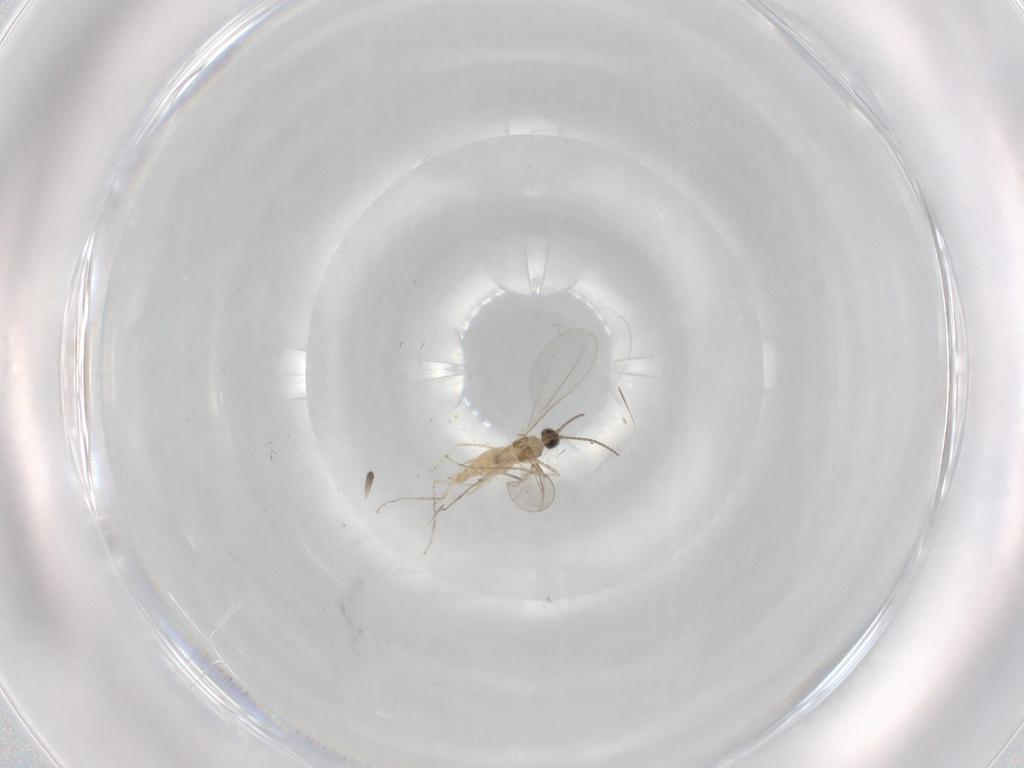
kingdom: Animalia
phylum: Arthropoda
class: Insecta
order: Diptera
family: Cecidomyiidae
